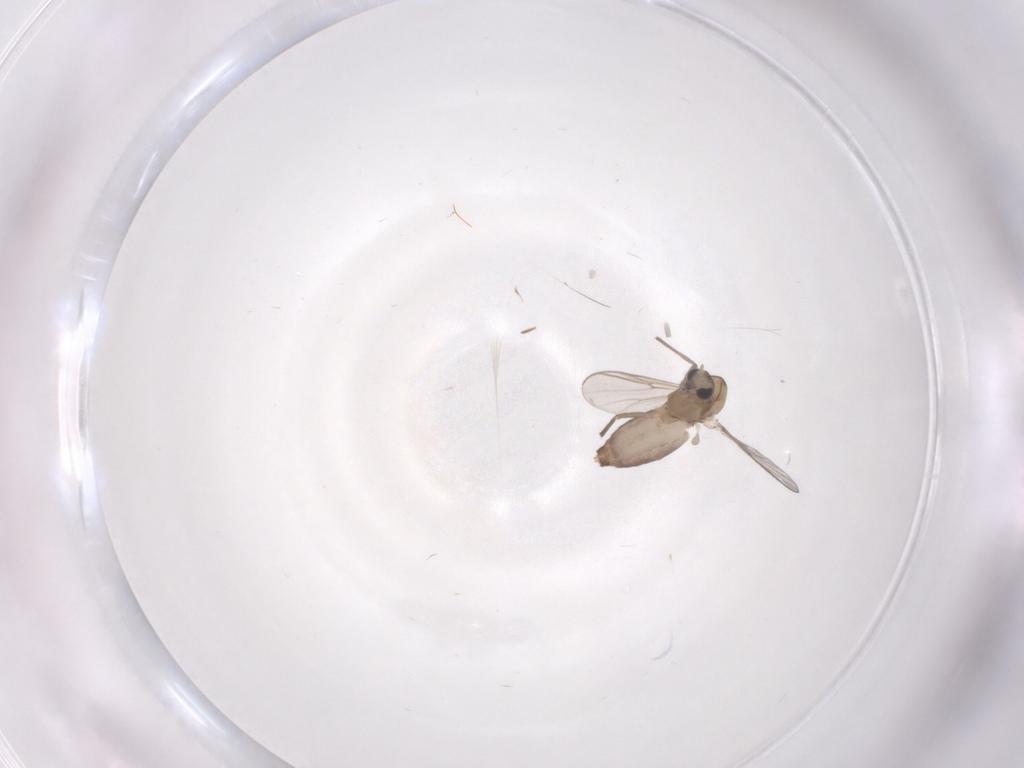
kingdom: Animalia
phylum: Arthropoda
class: Insecta
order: Diptera
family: Chironomidae
